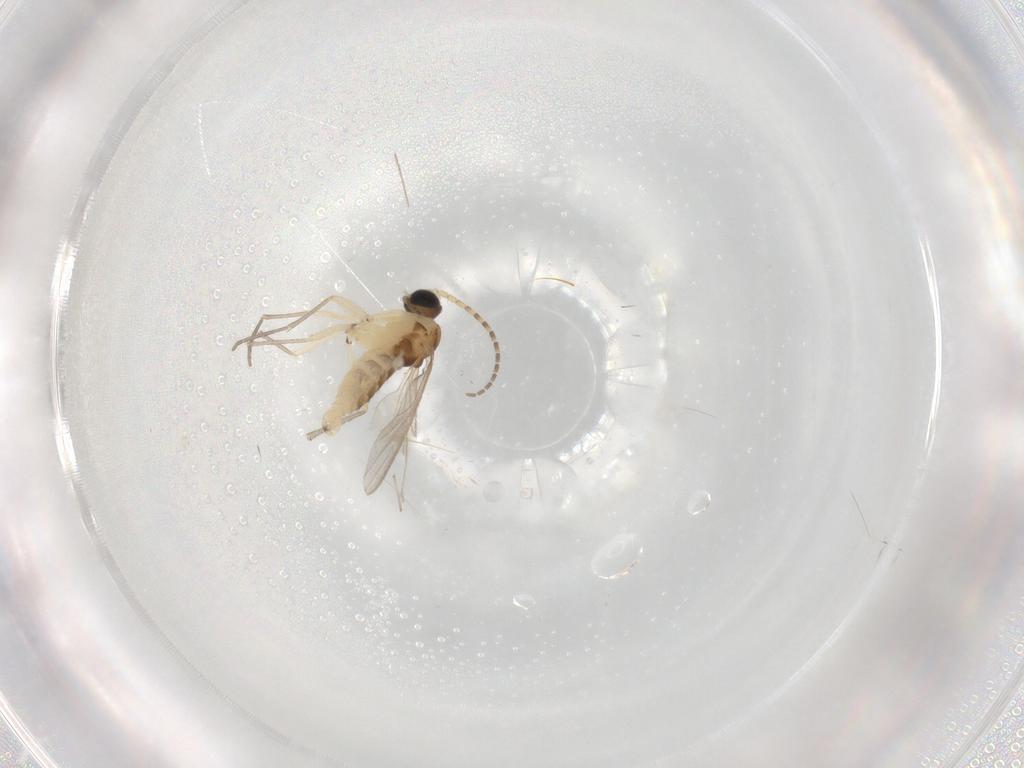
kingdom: Animalia
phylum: Arthropoda
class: Insecta
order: Diptera
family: Sciaridae
